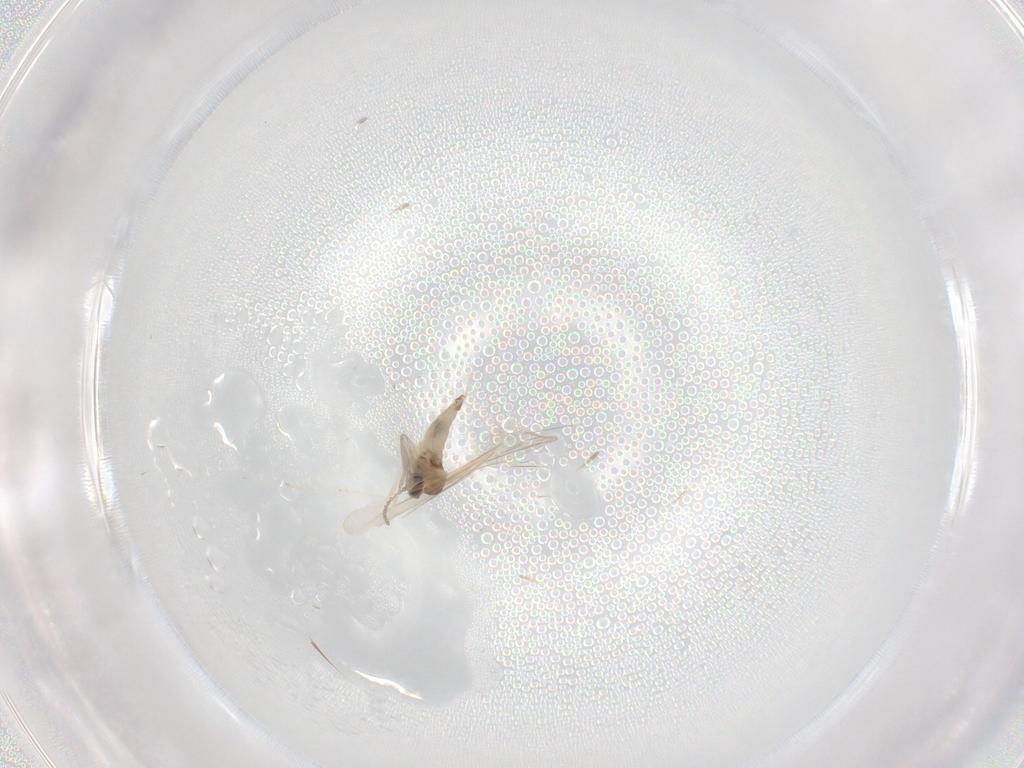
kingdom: Animalia
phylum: Arthropoda
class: Insecta
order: Diptera
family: Cecidomyiidae
